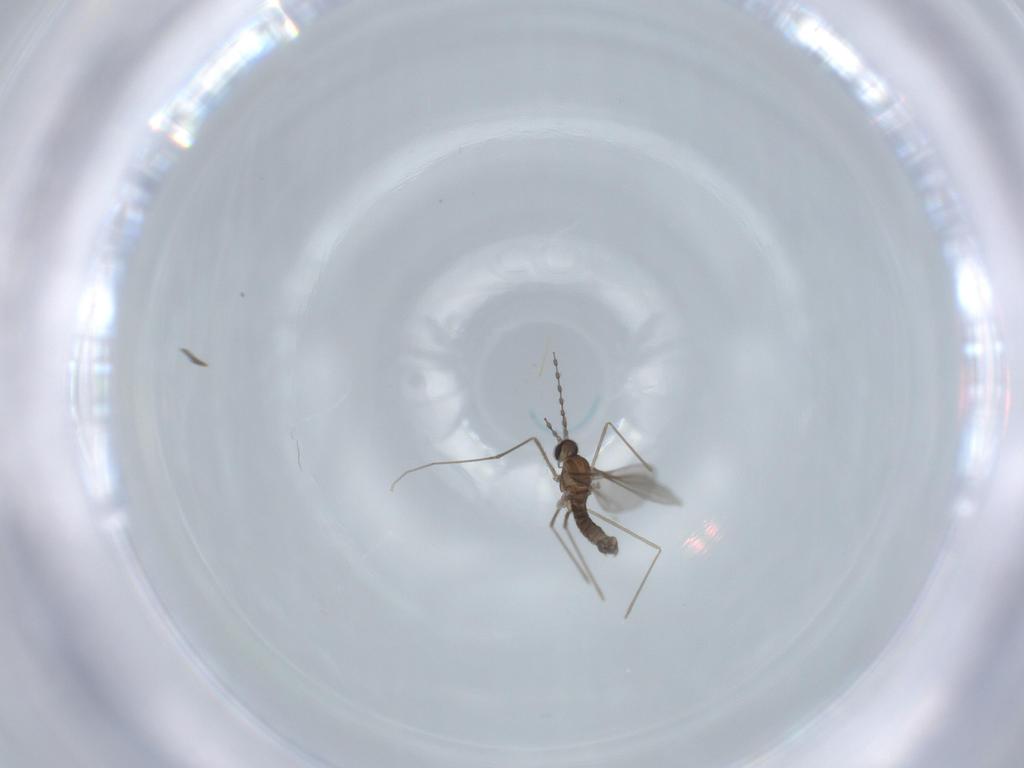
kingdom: Animalia
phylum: Arthropoda
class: Insecta
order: Diptera
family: Cecidomyiidae
